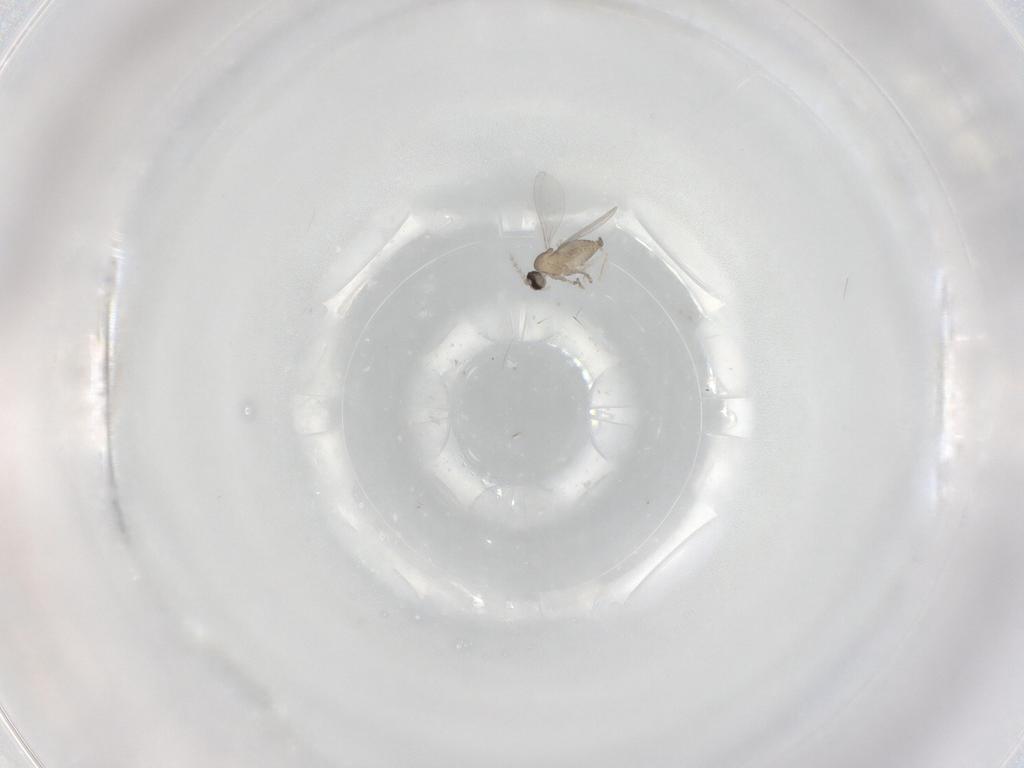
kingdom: Animalia
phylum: Arthropoda
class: Insecta
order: Diptera
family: Cecidomyiidae
